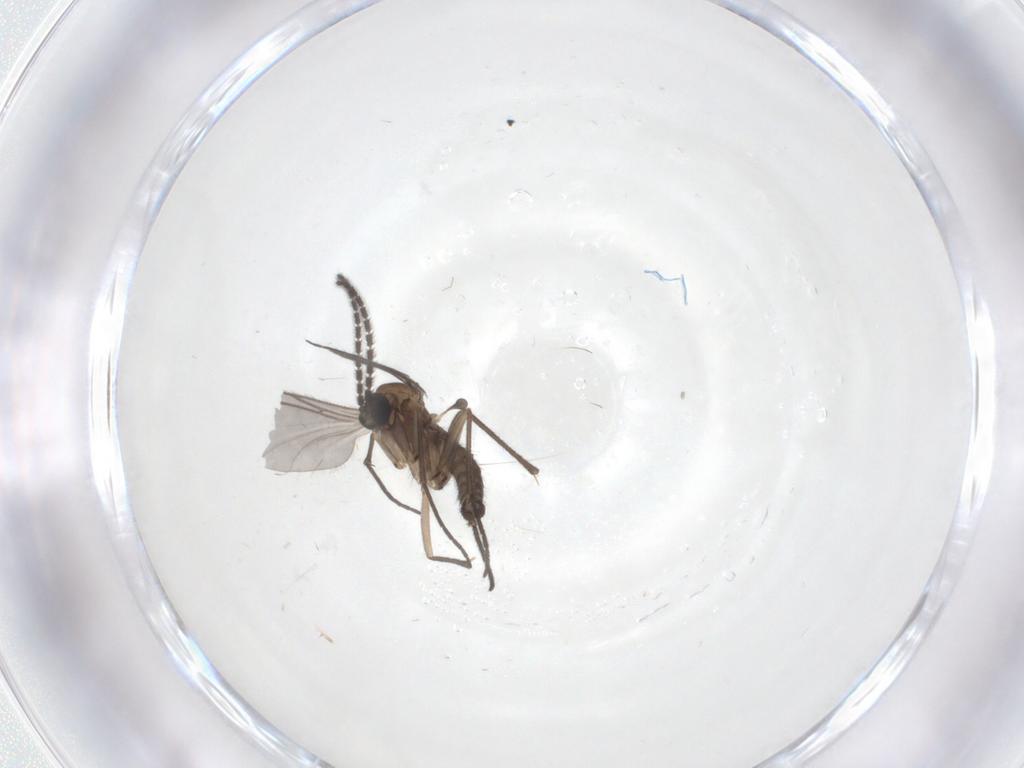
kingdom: Animalia
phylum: Arthropoda
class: Insecta
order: Diptera
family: Sciaridae
